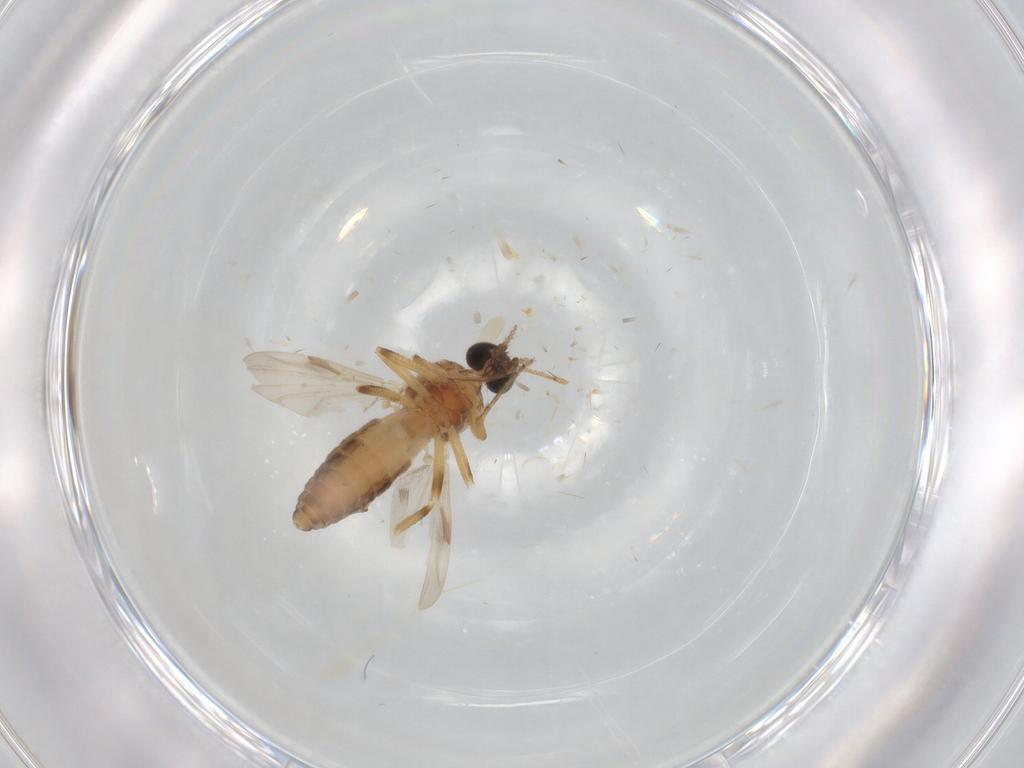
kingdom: Animalia
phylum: Arthropoda
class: Insecta
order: Diptera
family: Ceratopogonidae
